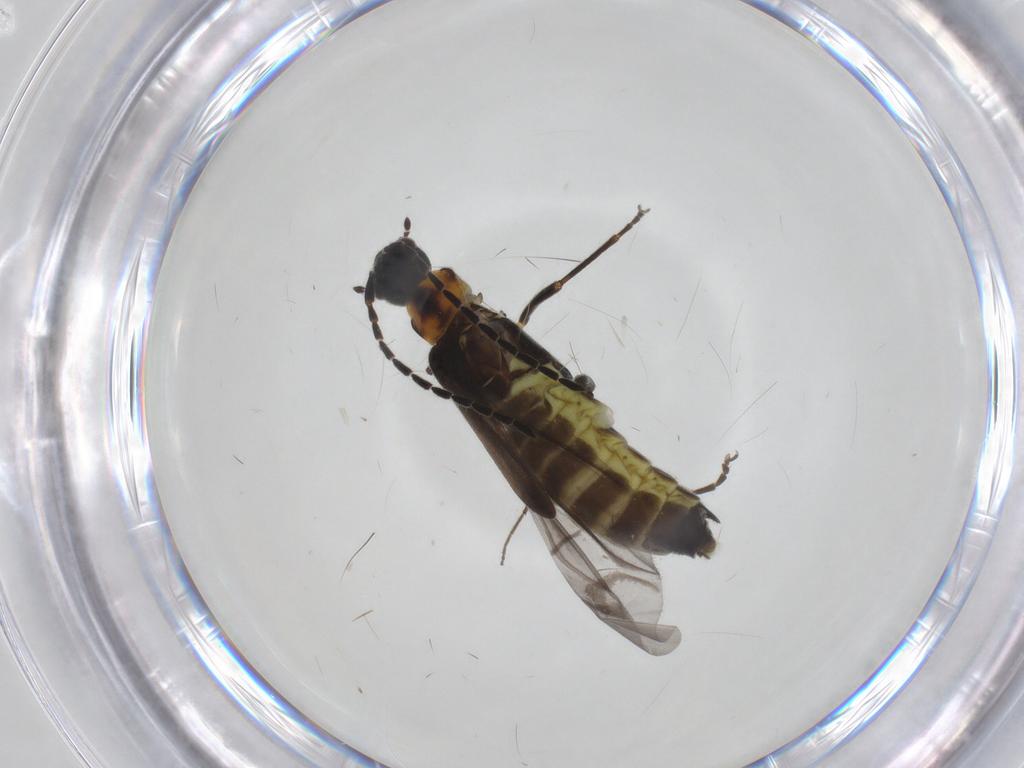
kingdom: Animalia
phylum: Arthropoda
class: Insecta
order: Coleoptera
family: Cantharidae
